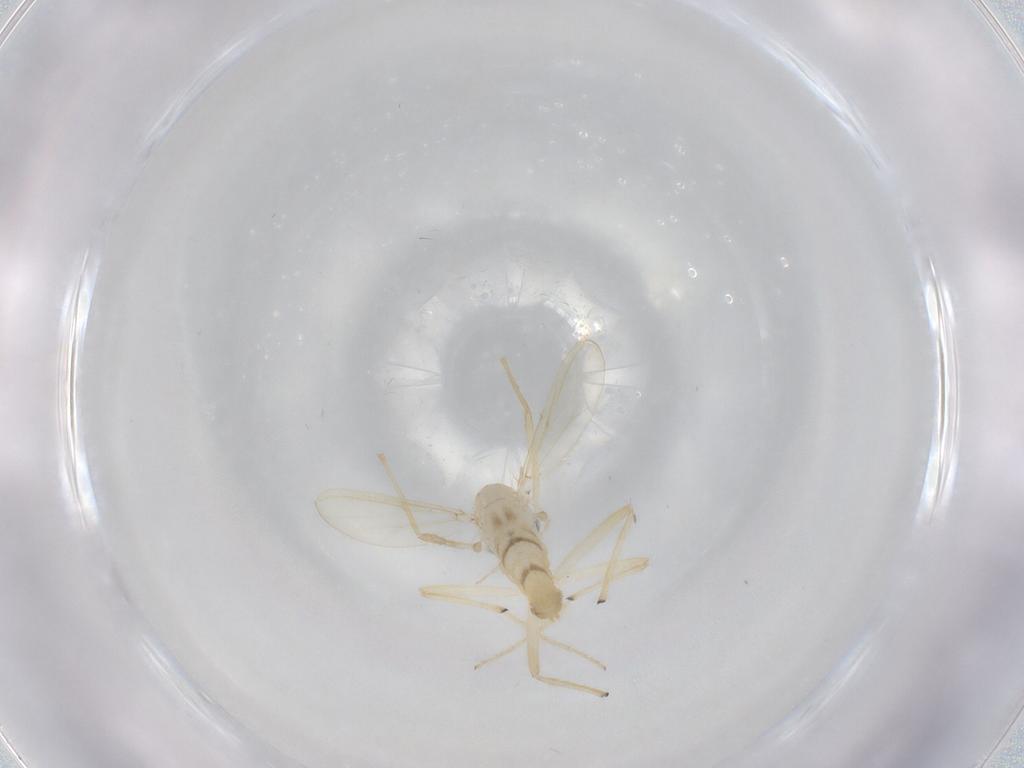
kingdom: Animalia
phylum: Arthropoda
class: Insecta
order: Diptera
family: Chironomidae
